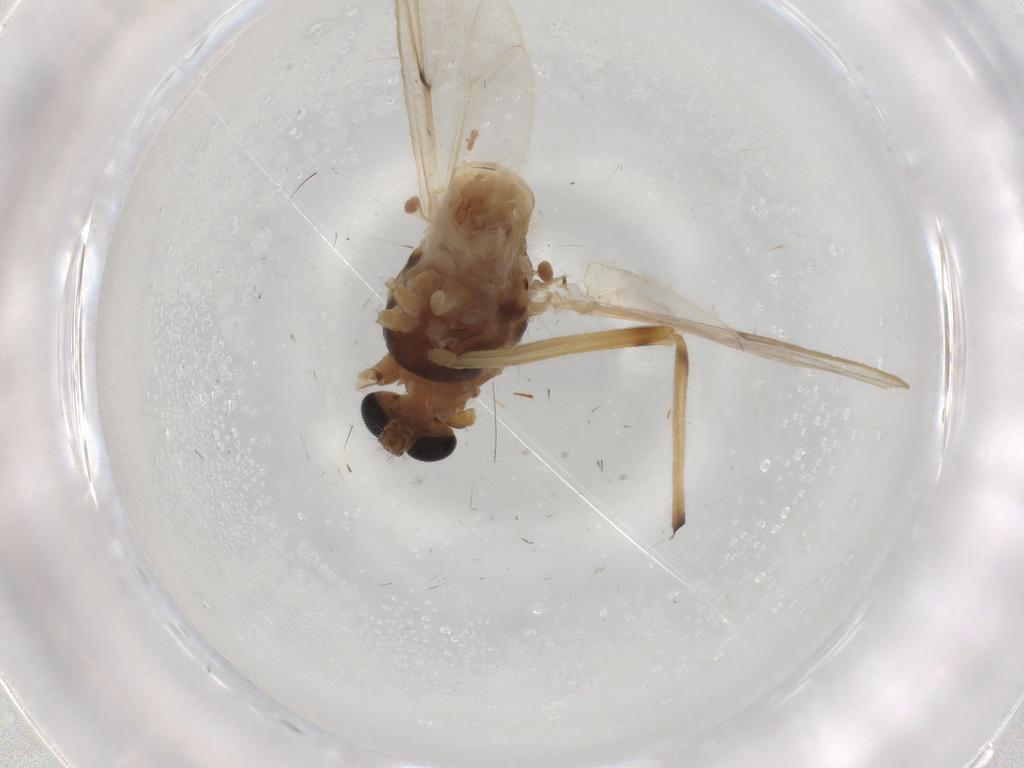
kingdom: Animalia
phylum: Arthropoda
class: Insecta
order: Diptera
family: Chironomidae
